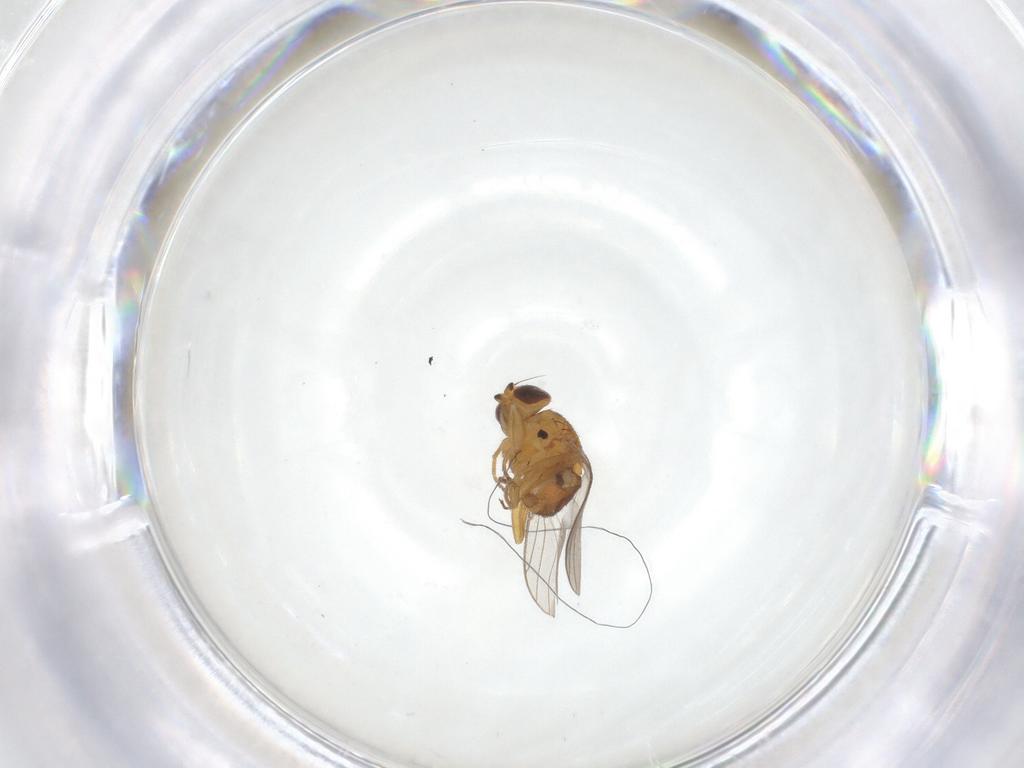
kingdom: Animalia
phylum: Arthropoda
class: Insecta
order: Diptera
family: Chloropidae
